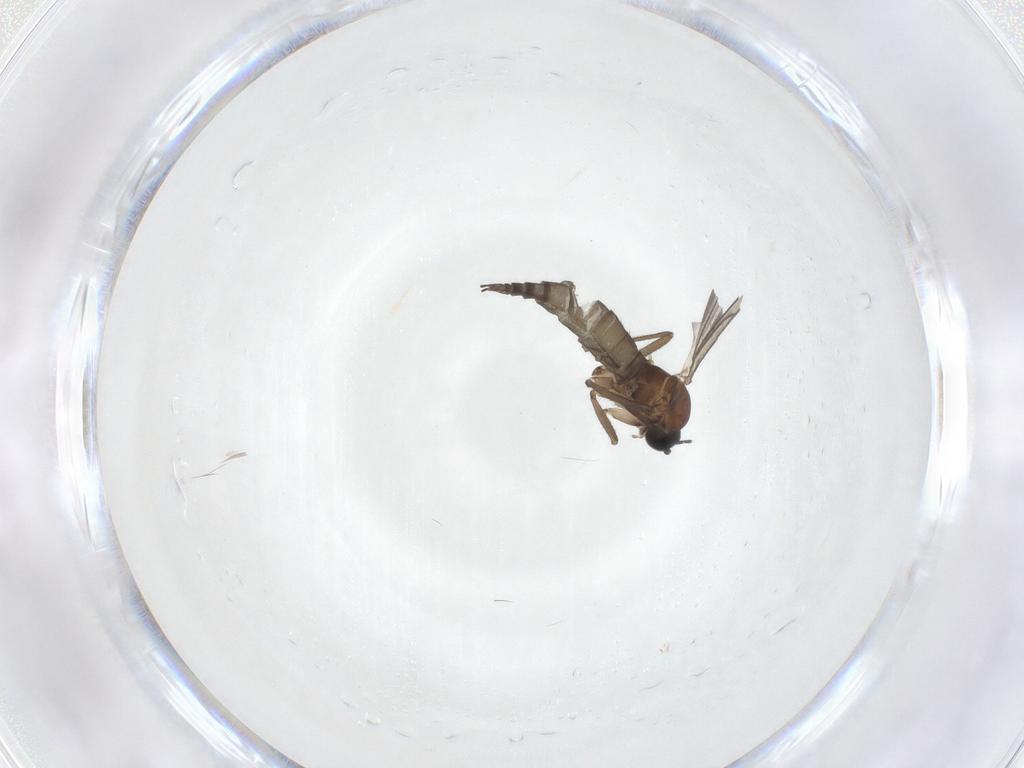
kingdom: Animalia
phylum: Arthropoda
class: Insecta
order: Diptera
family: Sciaridae
